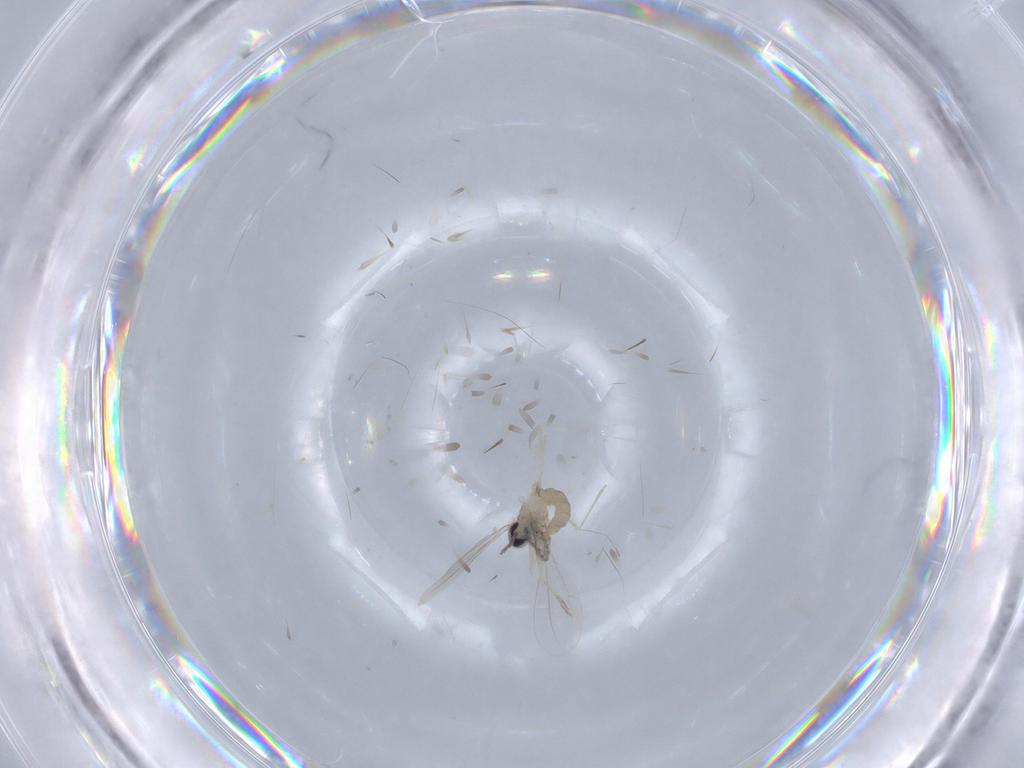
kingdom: Animalia
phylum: Arthropoda
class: Insecta
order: Diptera
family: Cecidomyiidae
